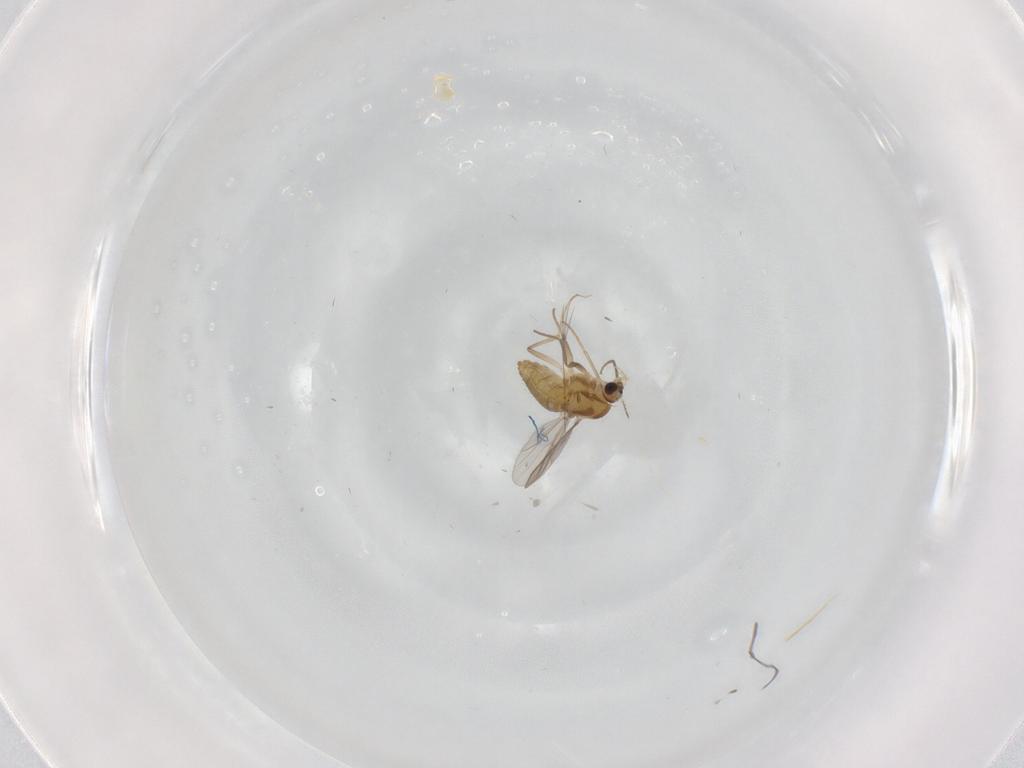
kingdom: Animalia
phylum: Arthropoda
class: Insecta
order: Diptera
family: Chironomidae
